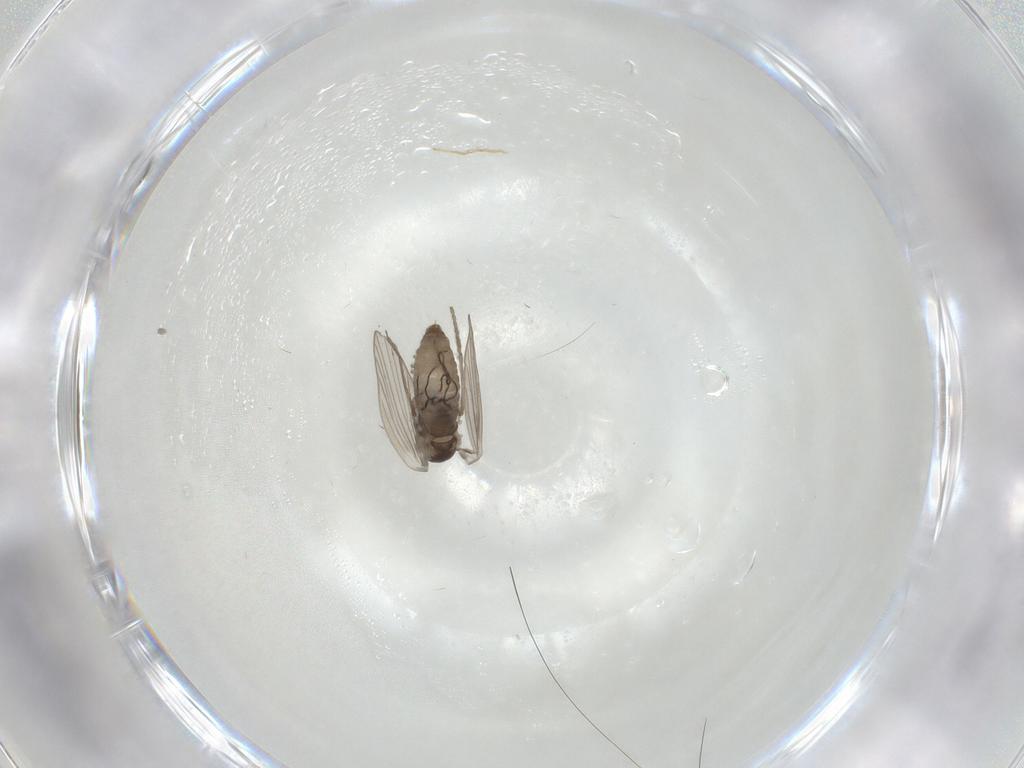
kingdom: Animalia
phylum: Arthropoda
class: Insecta
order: Diptera
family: Psychodidae
